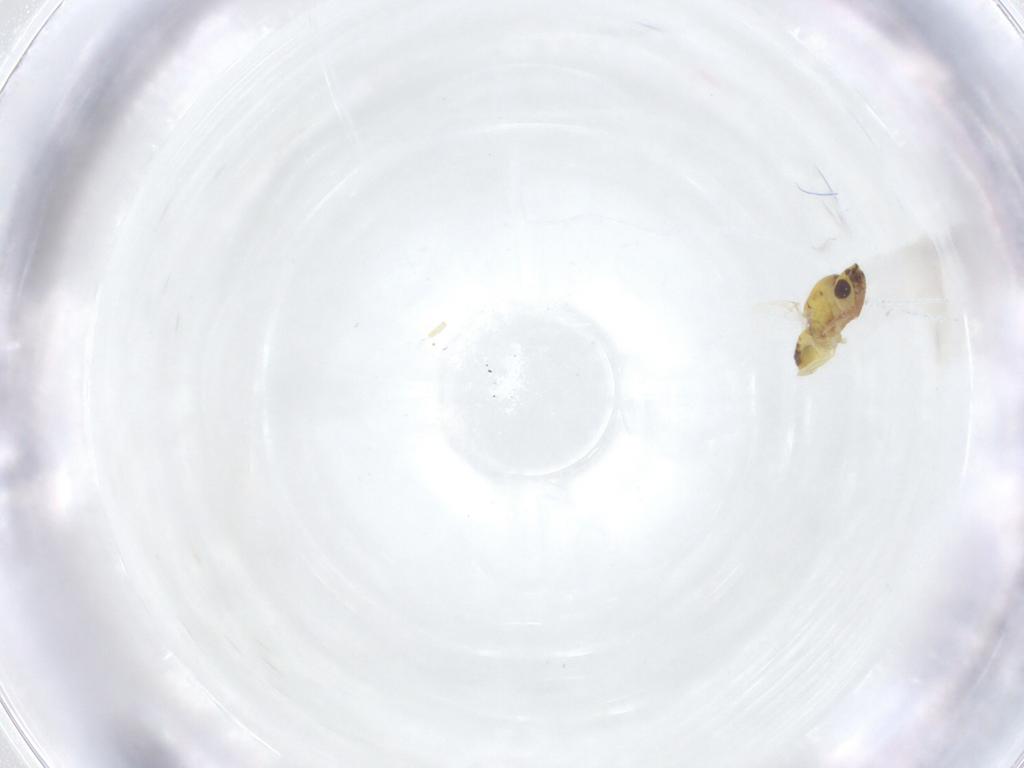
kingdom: Animalia
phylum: Arthropoda
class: Insecta
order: Hymenoptera
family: Eulophidae
